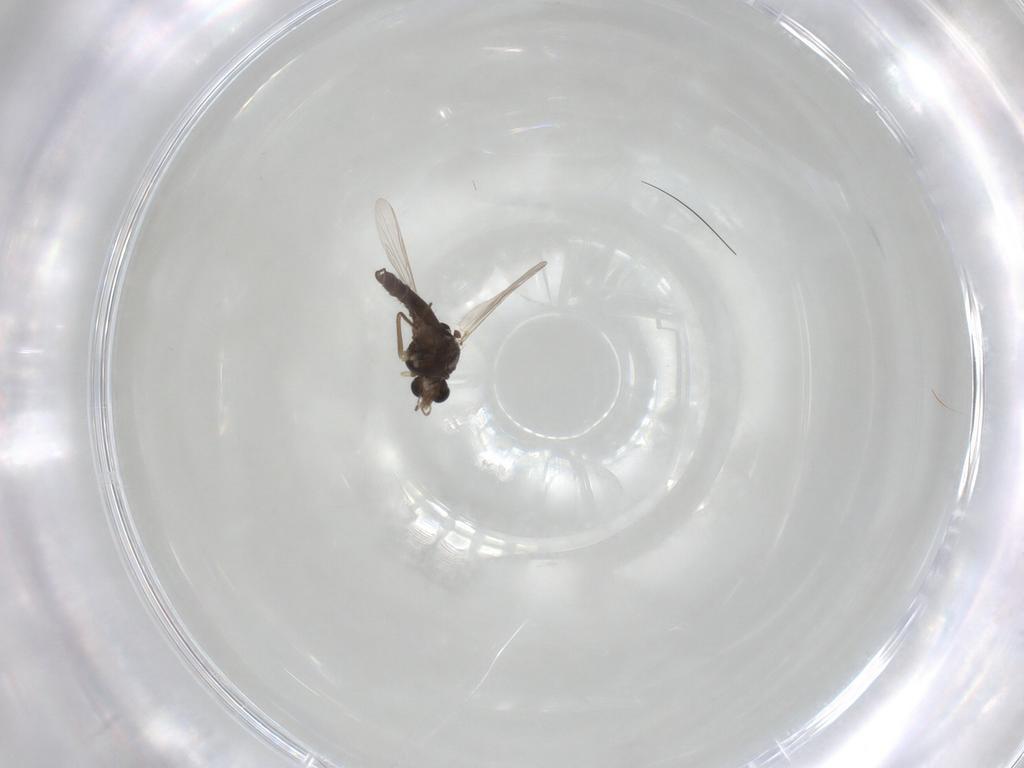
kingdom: Animalia
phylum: Arthropoda
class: Insecta
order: Diptera
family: Chironomidae
